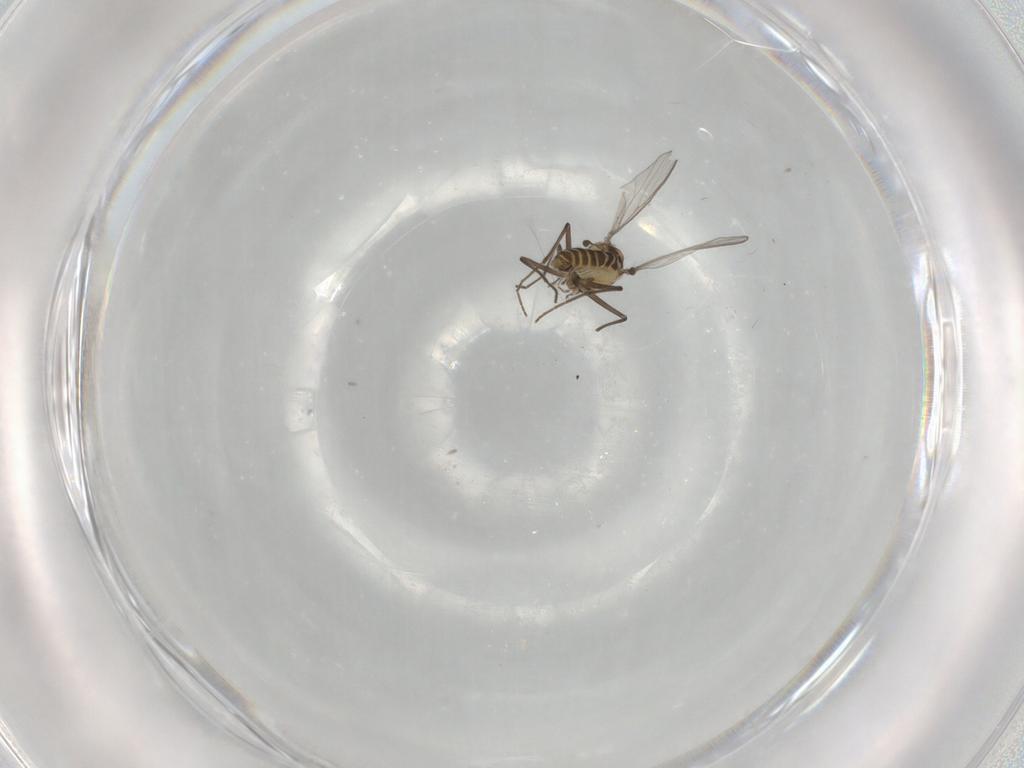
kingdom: Animalia
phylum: Arthropoda
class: Insecta
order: Diptera
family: Chironomidae
